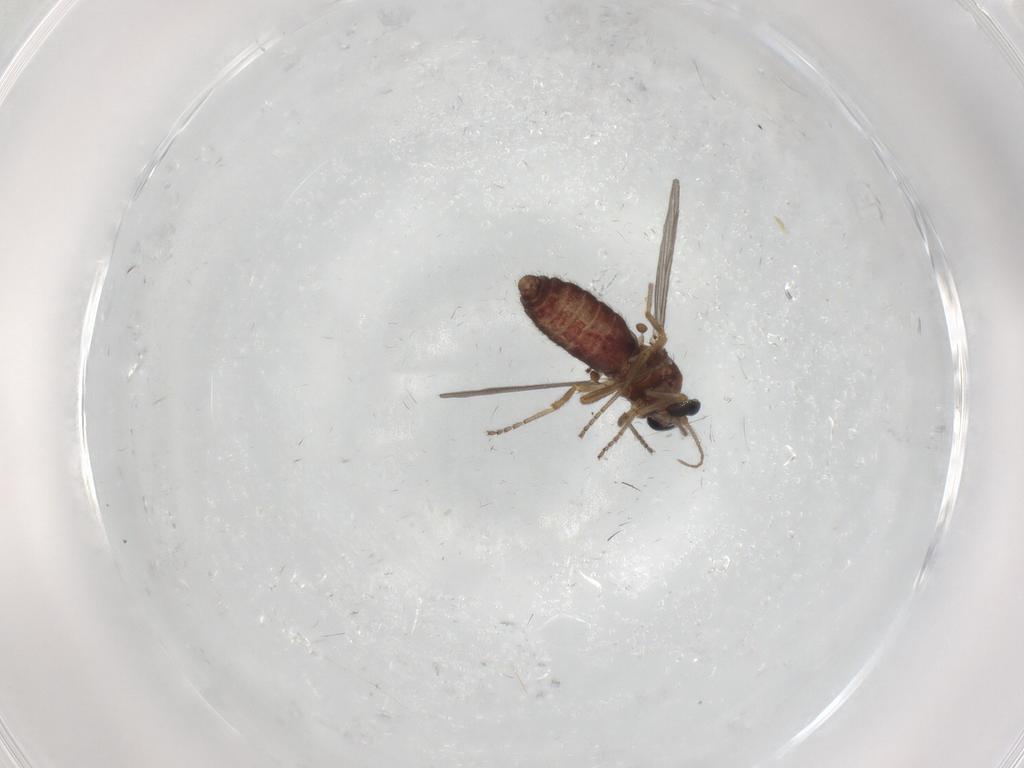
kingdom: Animalia
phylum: Arthropoda
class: Insecta
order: Diptera
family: Ceratopogonidae
